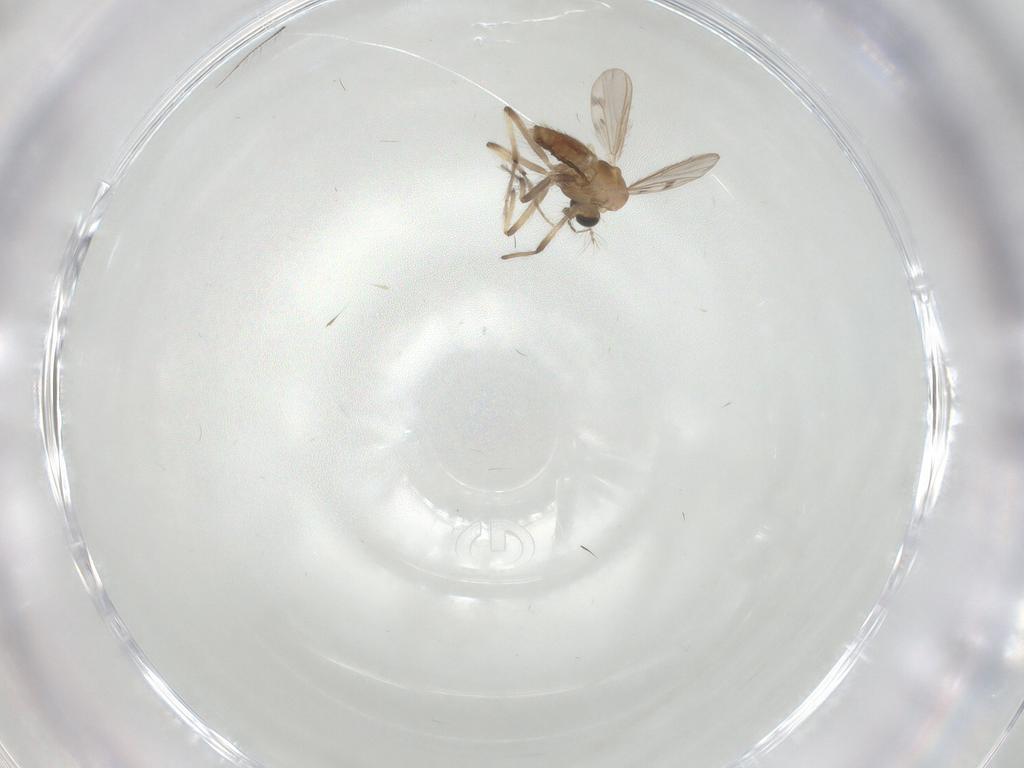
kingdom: Animalia
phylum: Arthropoda
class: Insecta
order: Diptera
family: Chironomidae
